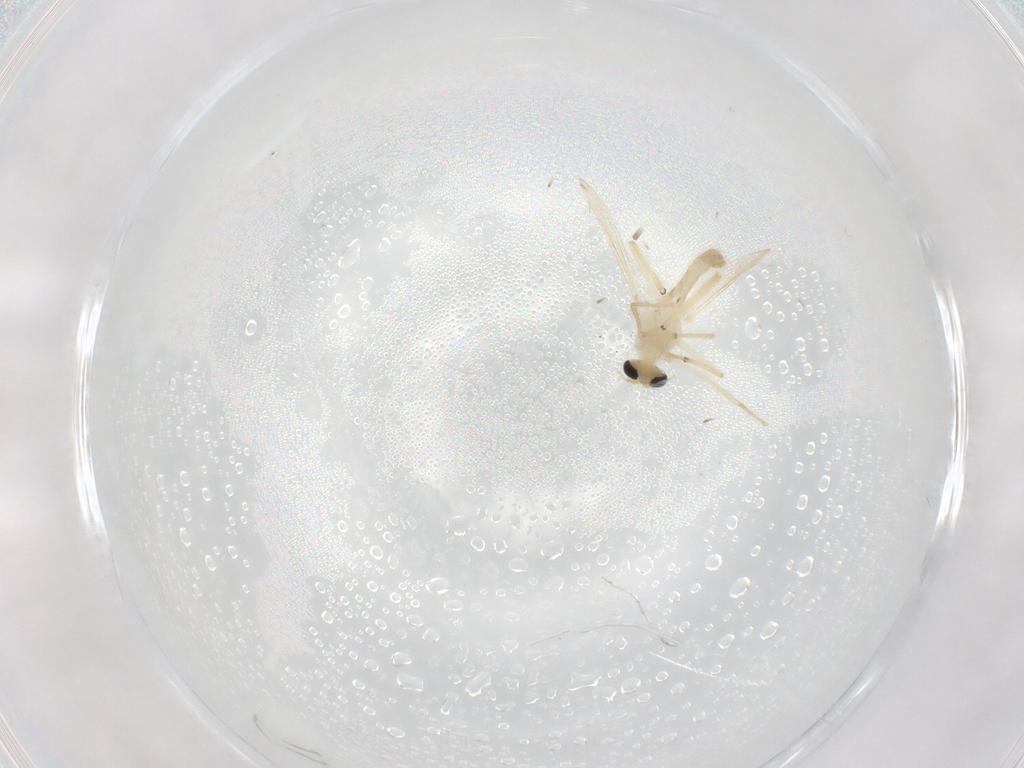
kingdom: Animalia
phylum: Arthropoda
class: Insecta
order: Diptera
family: Chironomidae
